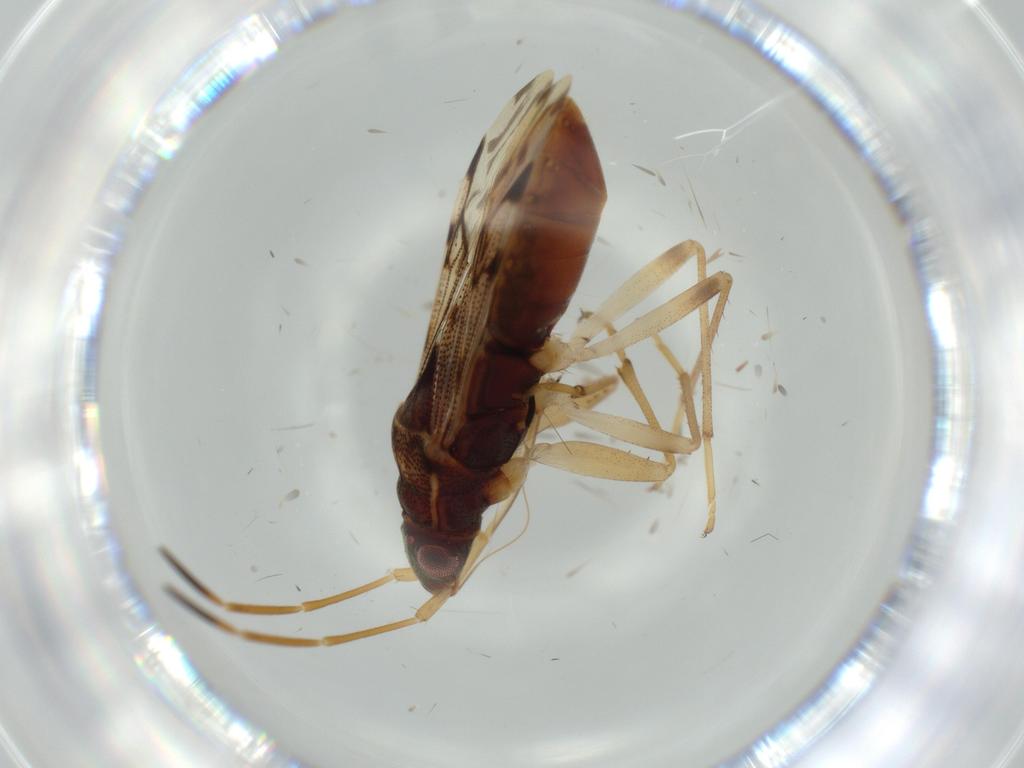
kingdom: Animalia
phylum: Arthropoda
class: Insecta
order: Hemiptera
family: Rhyparochromidae
